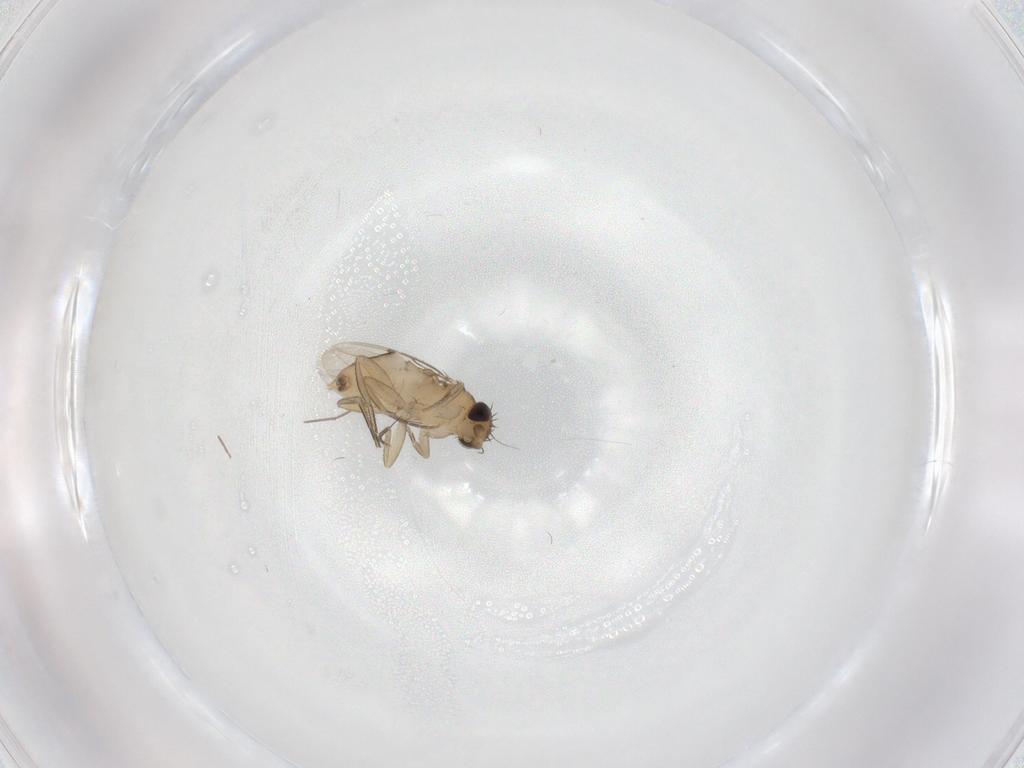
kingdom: Animalia
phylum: Arthropoda
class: Insecta
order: Diptera
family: Phoridae
